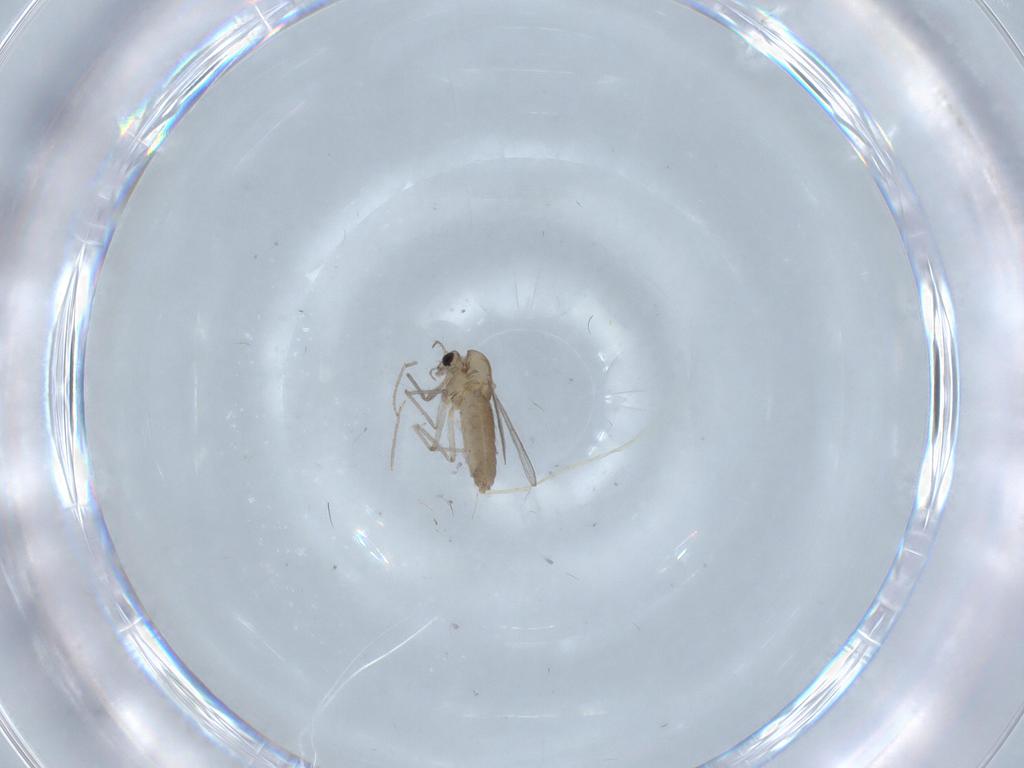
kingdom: Animalia
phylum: Arthropoda
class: Insecta
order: Diptera
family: Chironomidae
